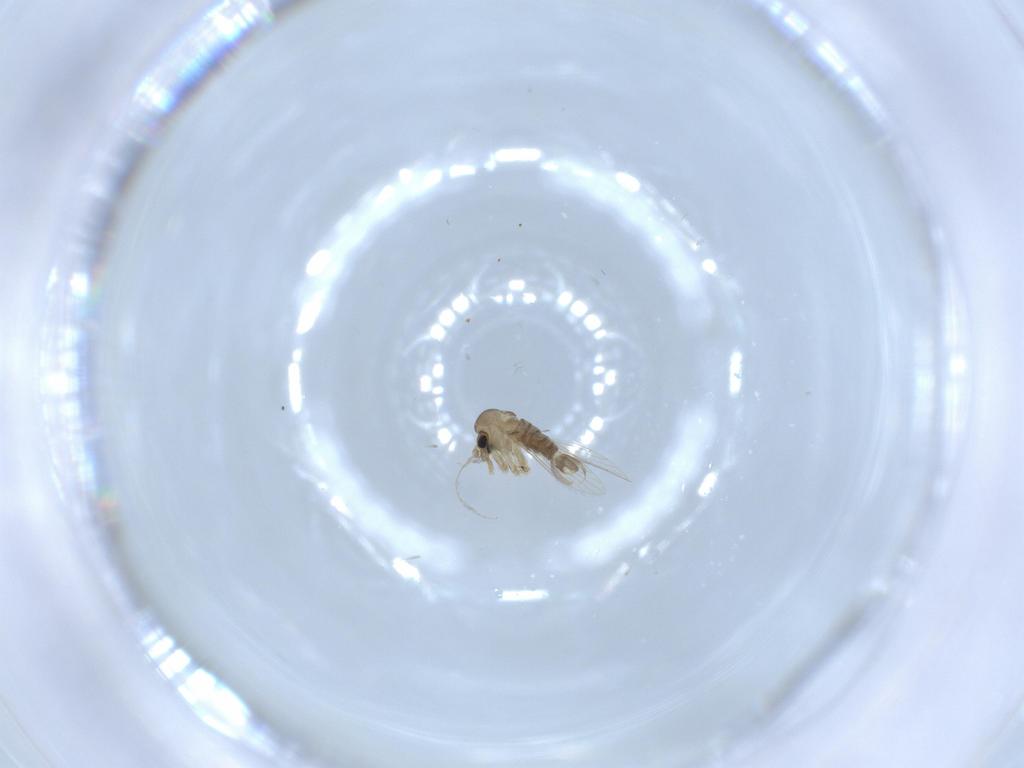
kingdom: Animalia
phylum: Arthropoda
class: Insecta
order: Diptera
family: Psychodidae
